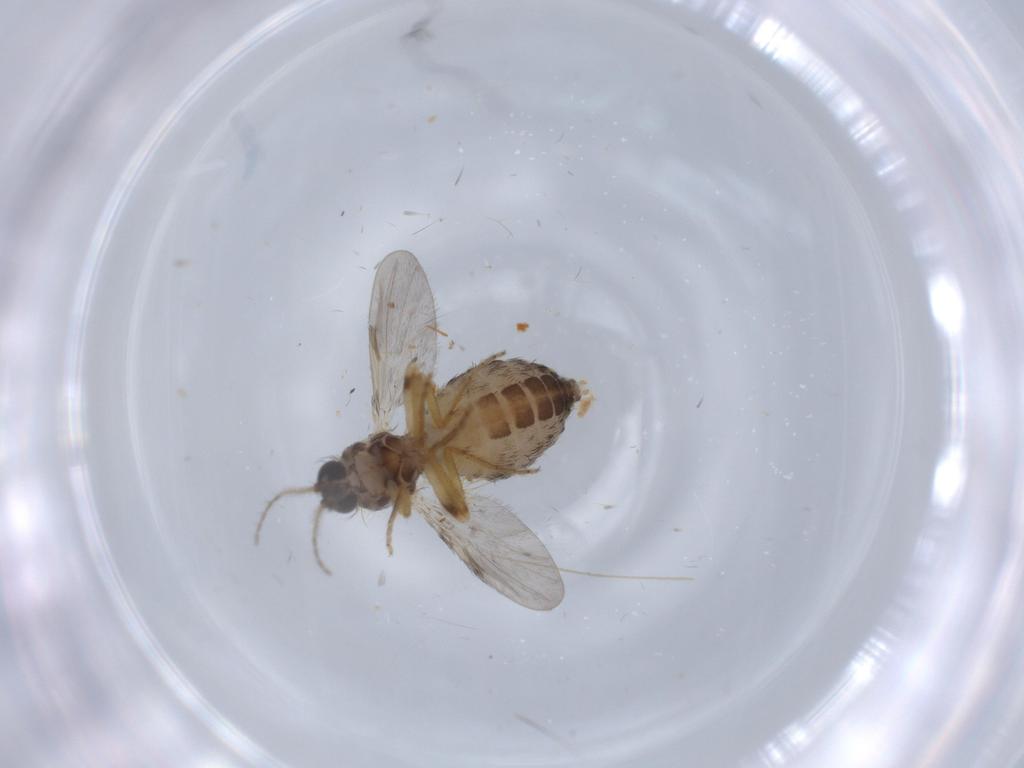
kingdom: Animalia
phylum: Arthropoda
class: Insecta
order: Diptera
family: Ceratopogonidae
